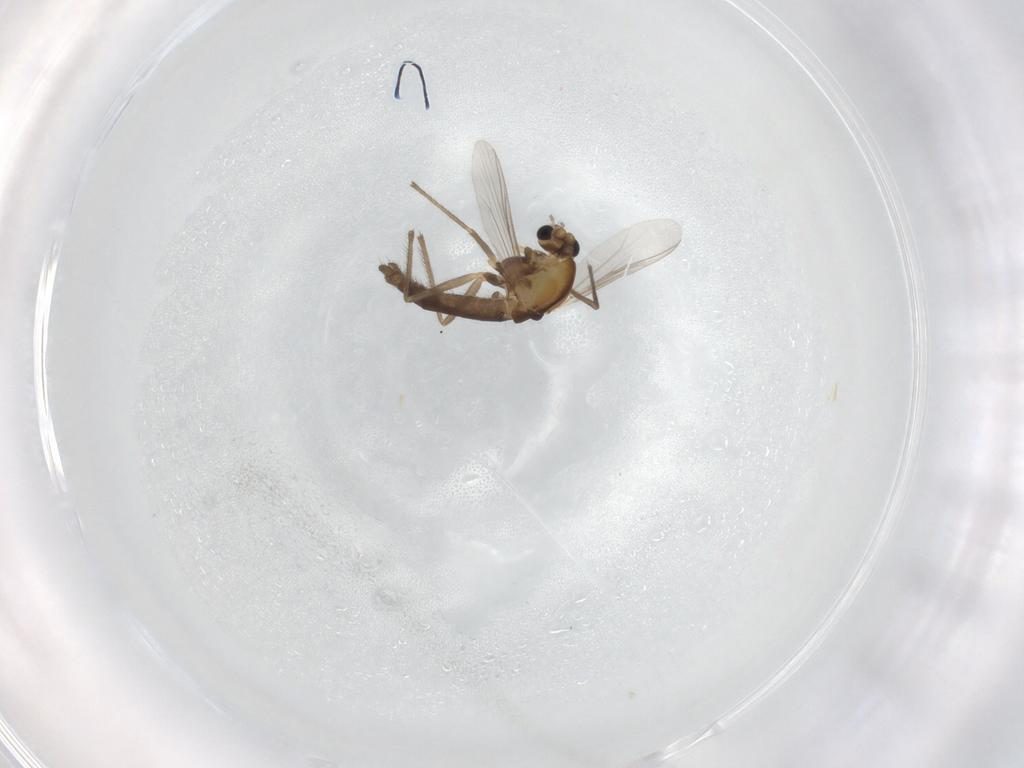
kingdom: Animalia
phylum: Arthropoda
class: Insecta
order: Diptera
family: Chironomidae
